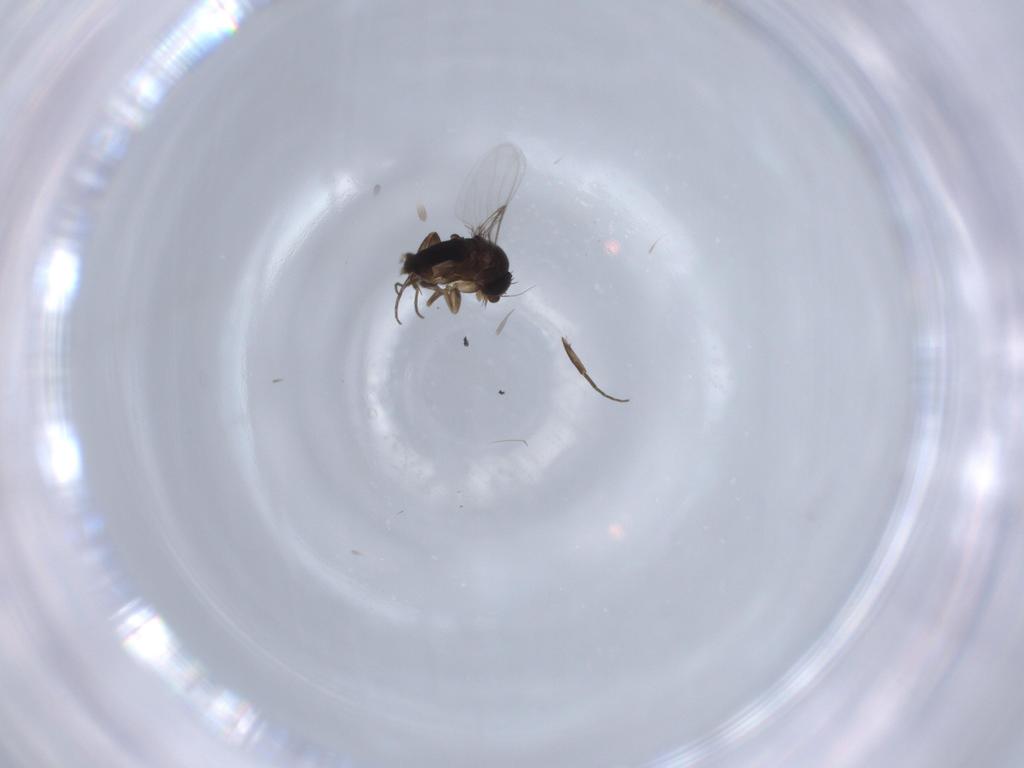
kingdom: Animalia
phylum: Arthropoda
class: Insecta
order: Diptera
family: Phoridae
